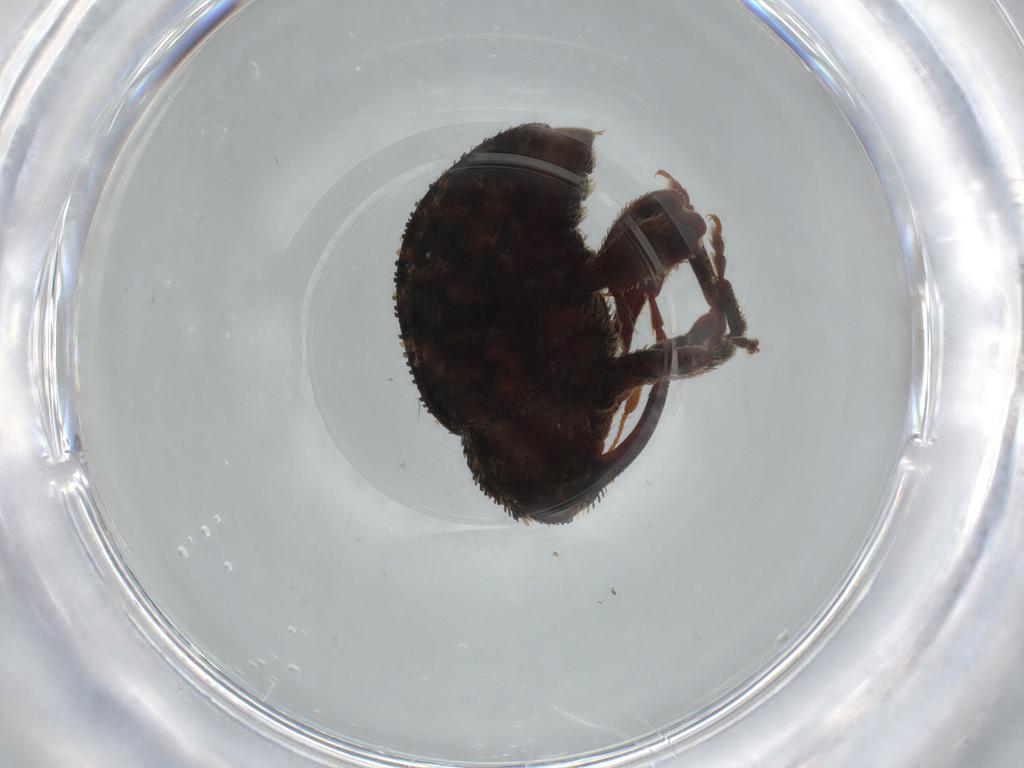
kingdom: Animalia
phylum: Arthropoda
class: Insecta
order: Coleoptera
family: Curculionidae
